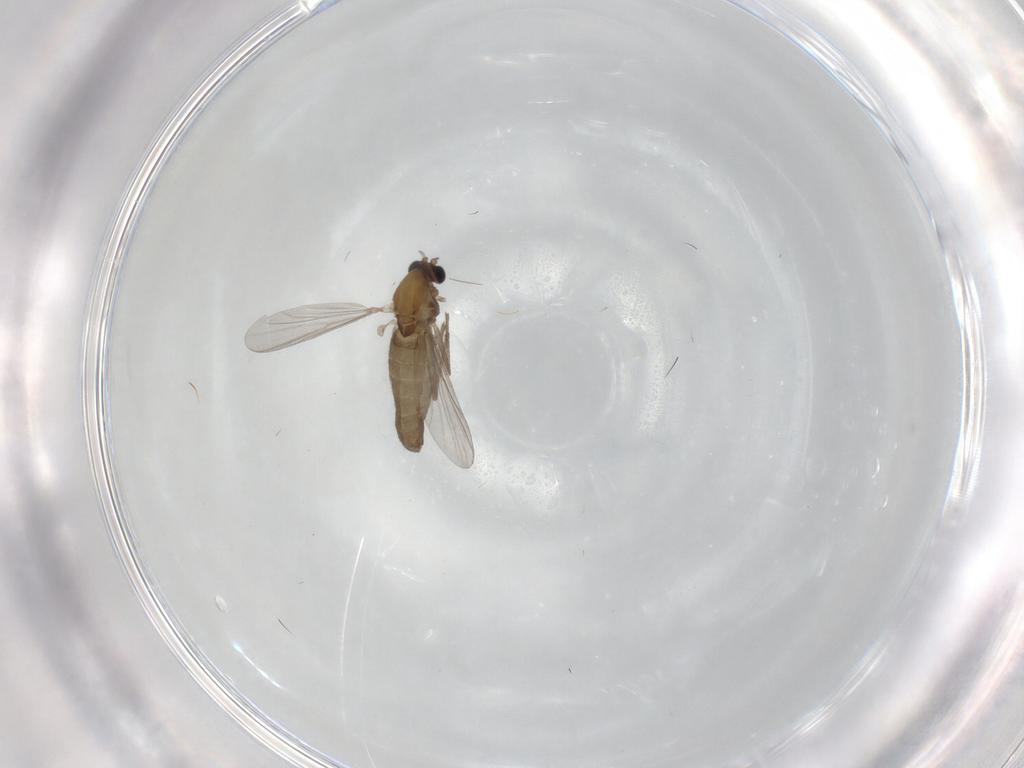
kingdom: Animalia
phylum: Arthropoda
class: Insecta
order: Diptera
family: Chironomidae
